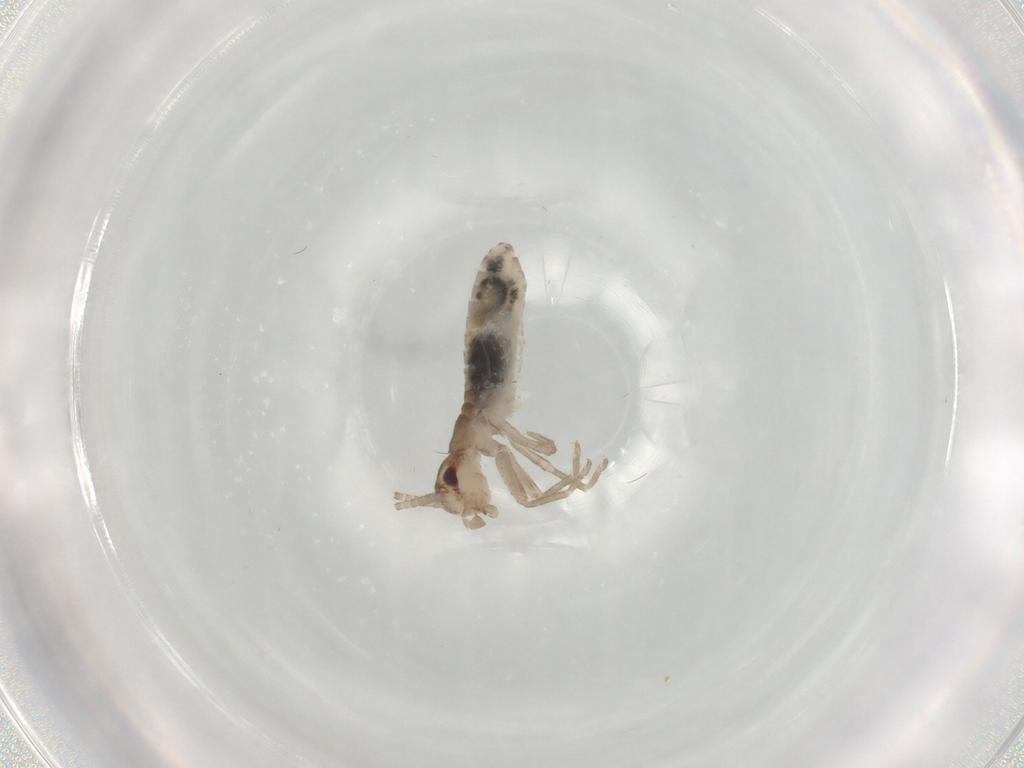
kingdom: Animalia
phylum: Arthropoda
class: Insecta
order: Orthoptera
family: Mogoplistidae
